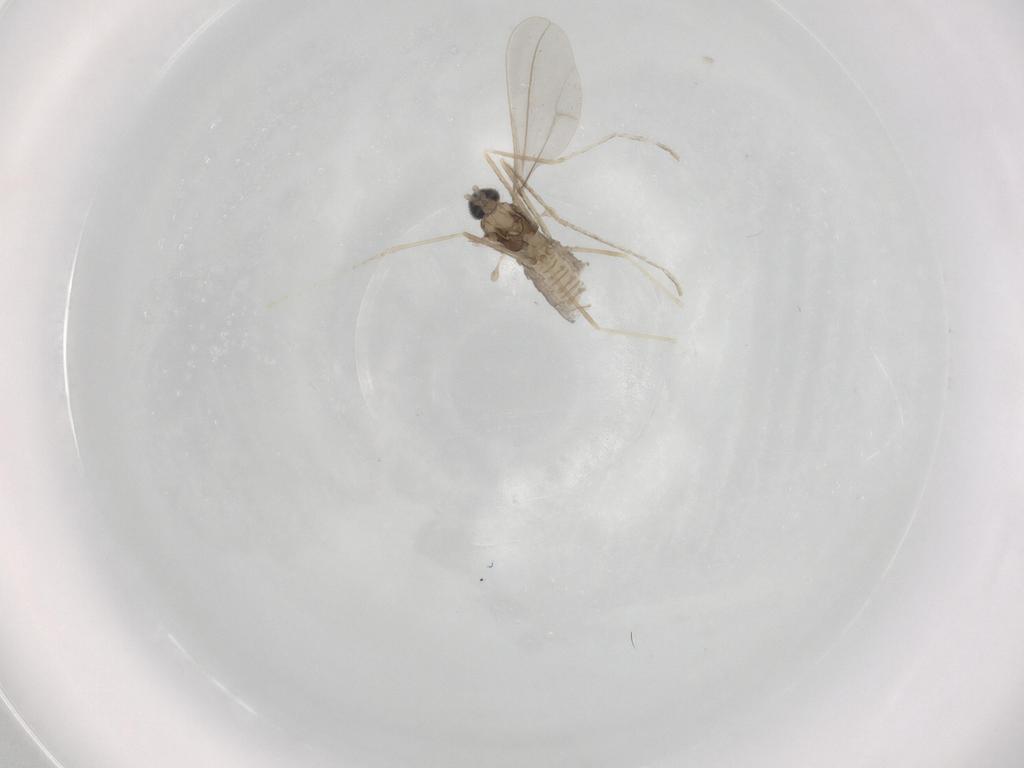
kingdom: Animalia
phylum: Arthropoda
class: Insecta
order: Diptera
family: Cecidomyiidae
